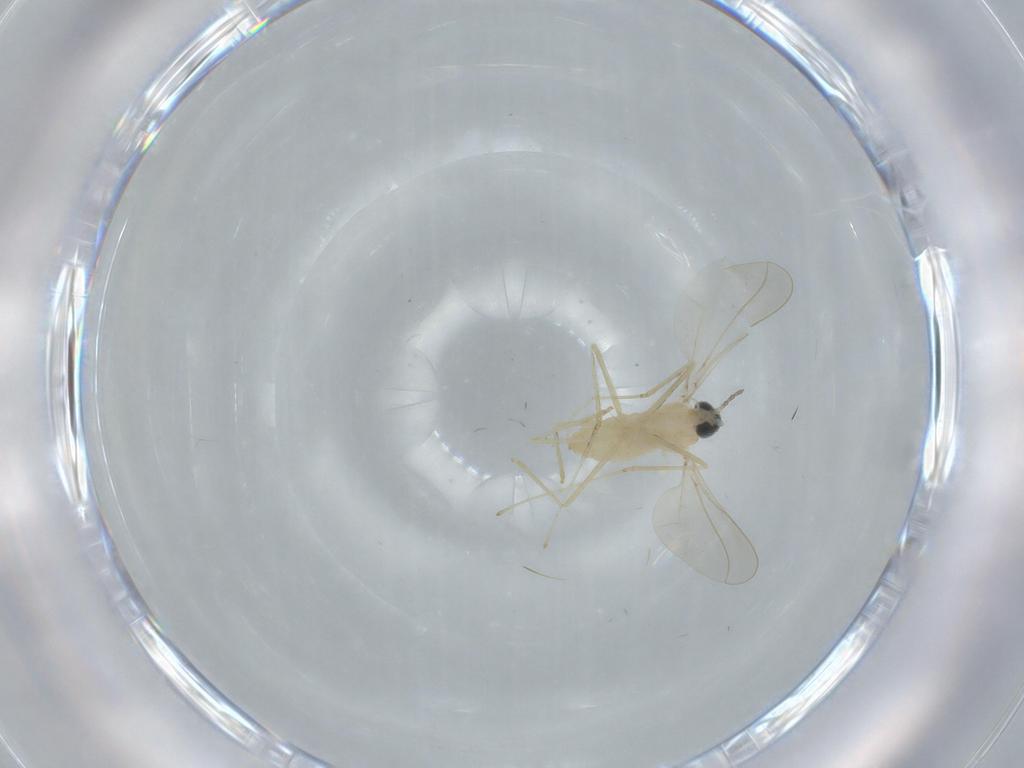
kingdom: Animalia
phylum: Arthropoda
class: Insecta
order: Diptera
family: Cecidomyiidae
